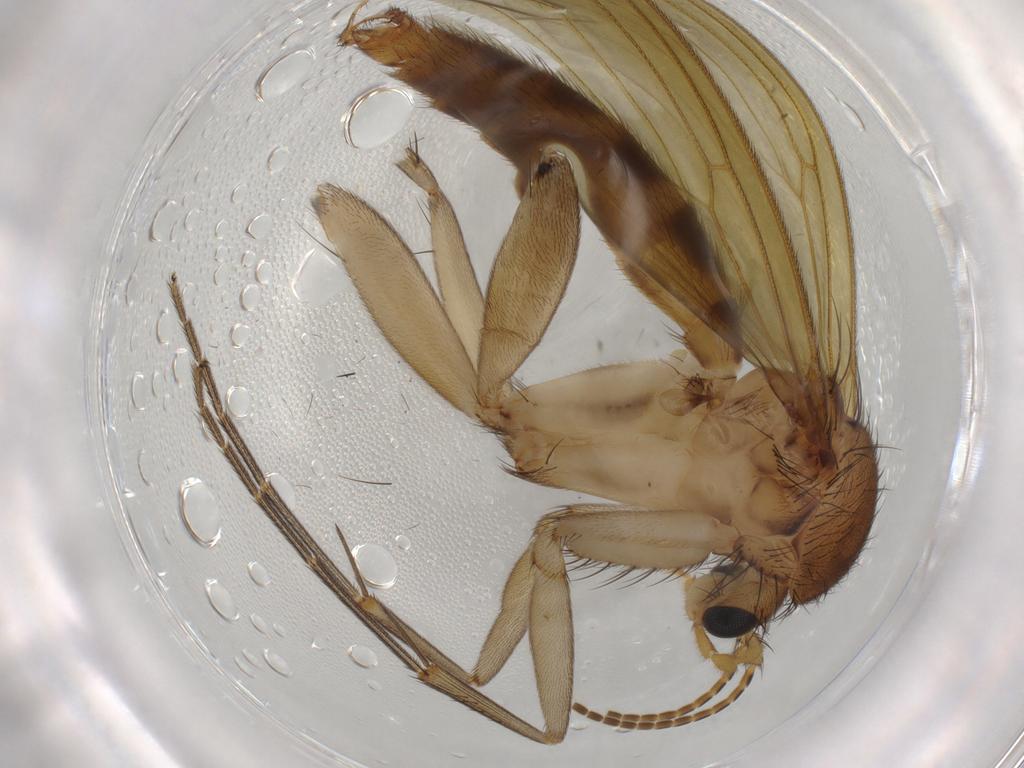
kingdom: Animalia
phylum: Arthropoda
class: Insecta
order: Diptera
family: Mycetophilidae
